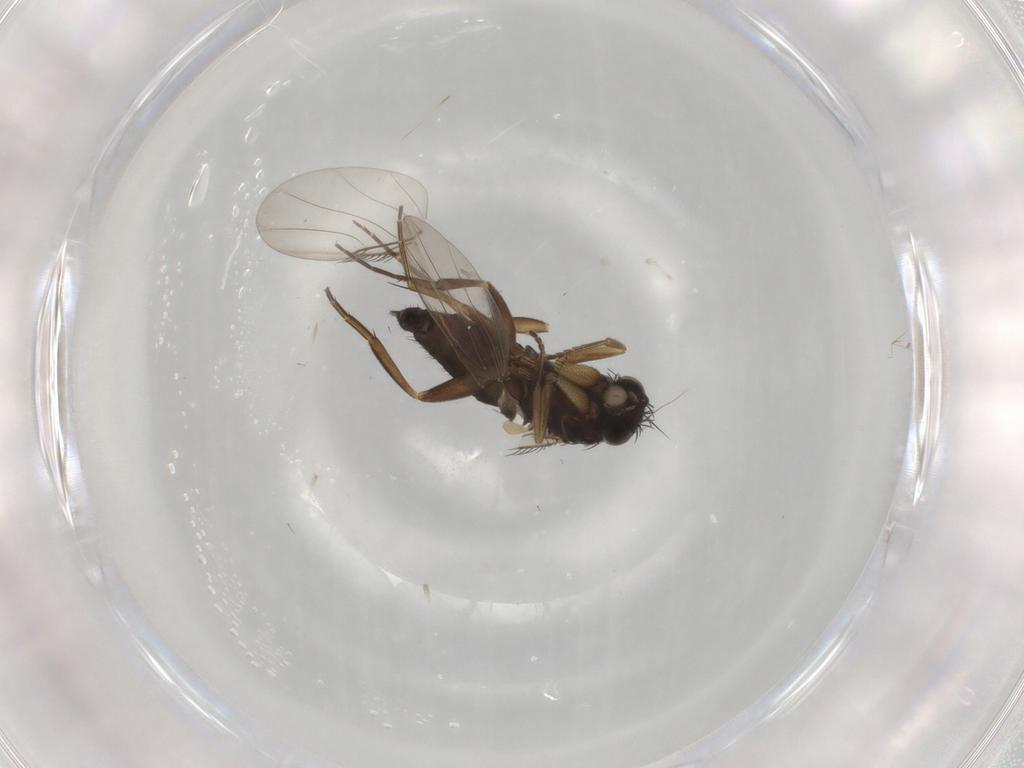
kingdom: Animalia
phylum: Arthropoda
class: Insecta
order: Diptera
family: Phoridae
